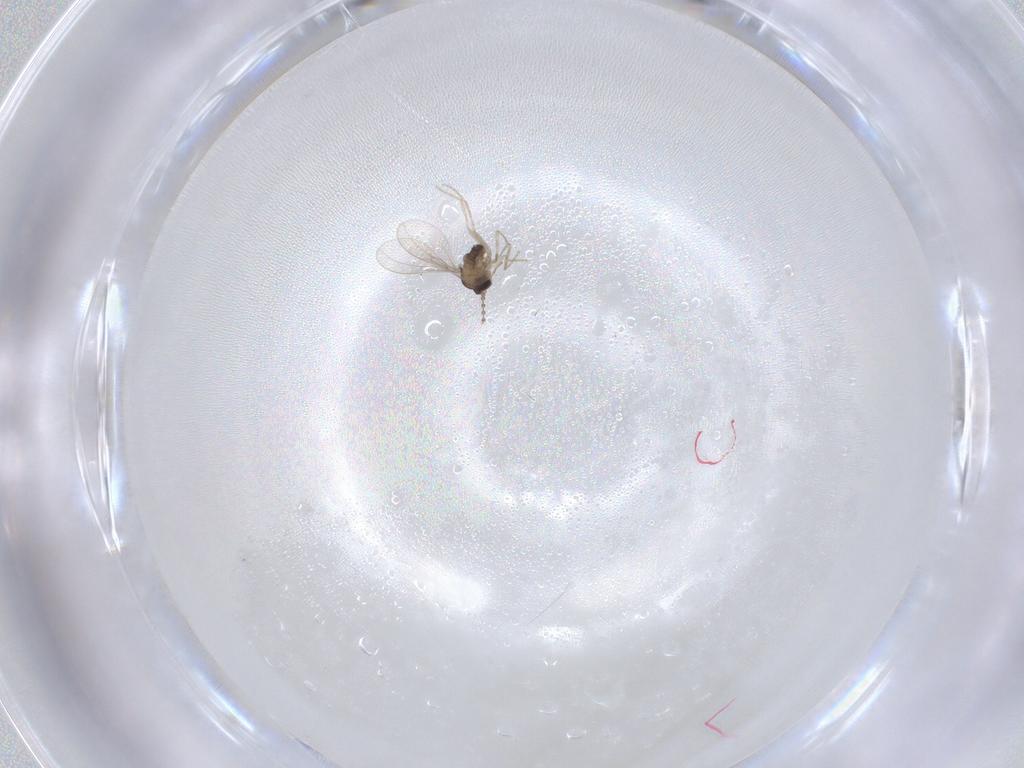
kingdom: Animalia
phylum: Arthropoda
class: Insecta
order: Diptera
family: Cecidomyiidae
